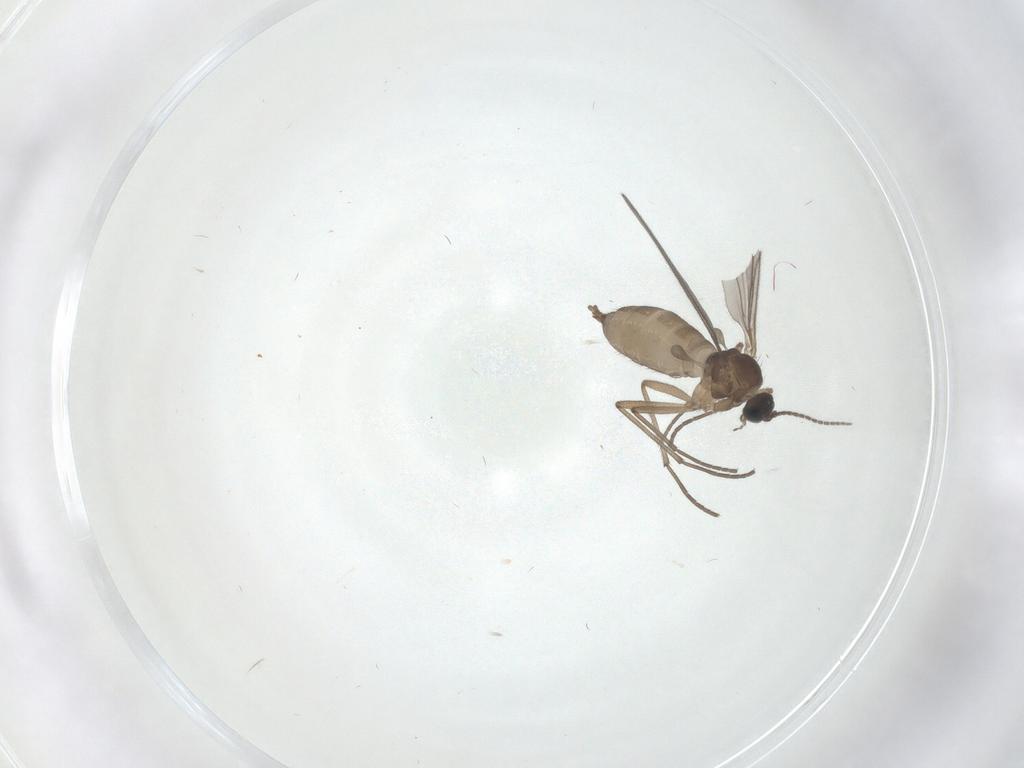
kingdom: Animalia
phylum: Arthropoda
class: Insecta
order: Diptera
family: Sciaridae
